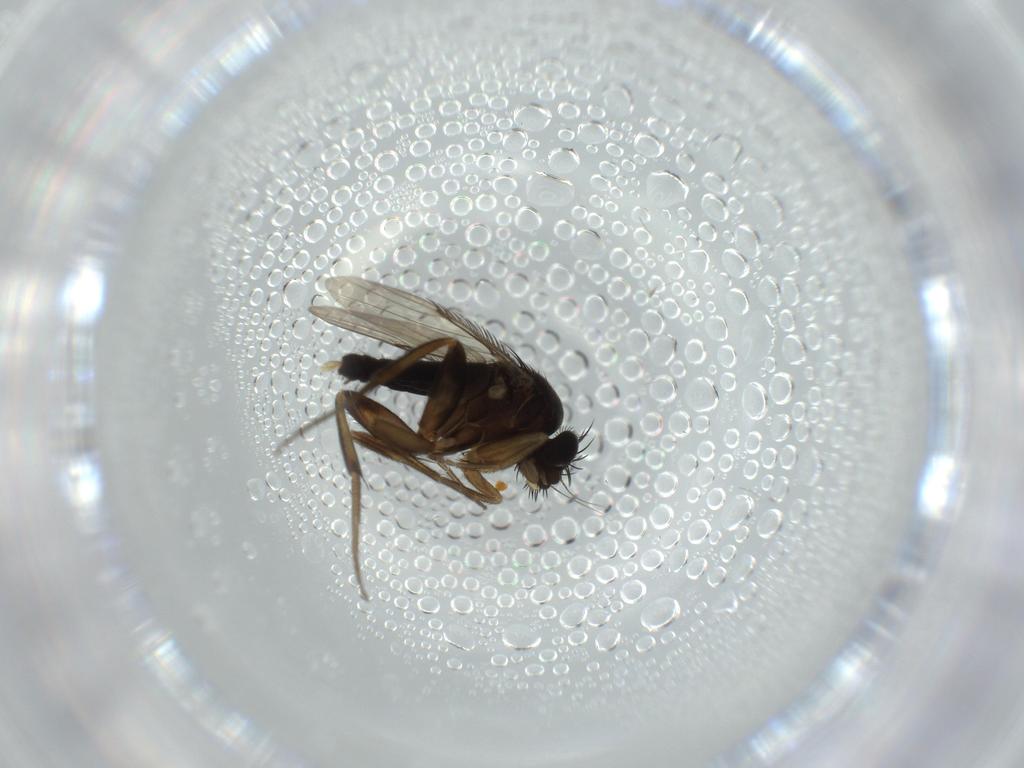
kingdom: Animalia
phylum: Arthropoda
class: Insecta
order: Diptera
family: Phoridae
